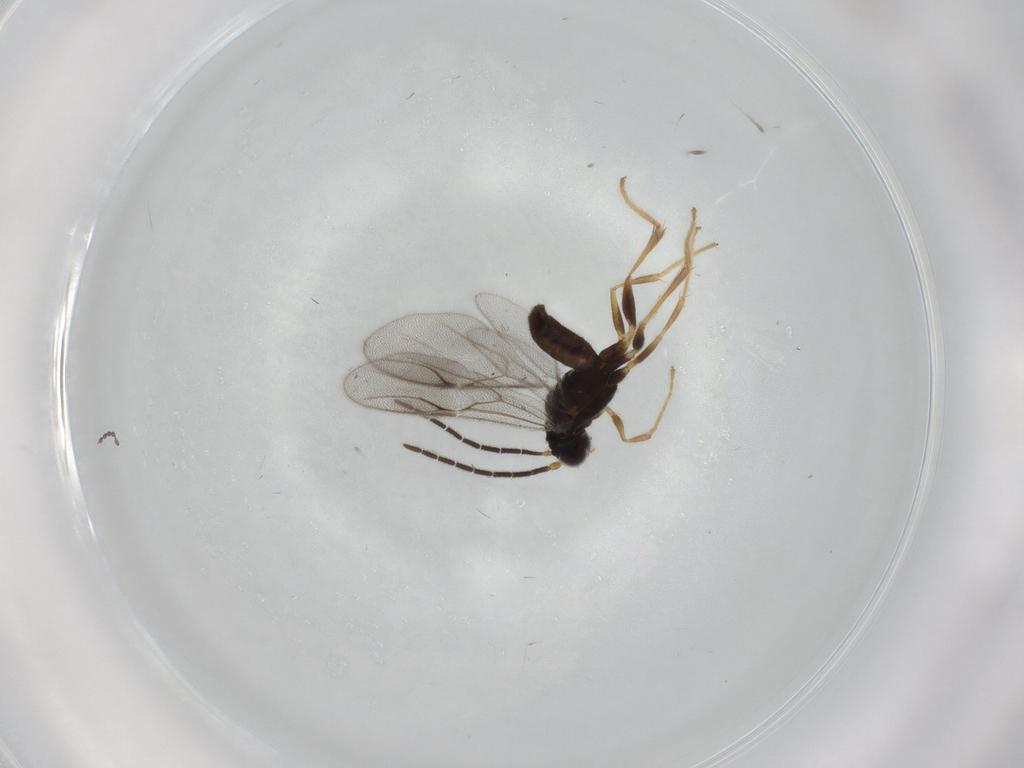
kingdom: Animalia
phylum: Arthropoda
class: Insecta
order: Hymenoptera
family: Dryinidae
